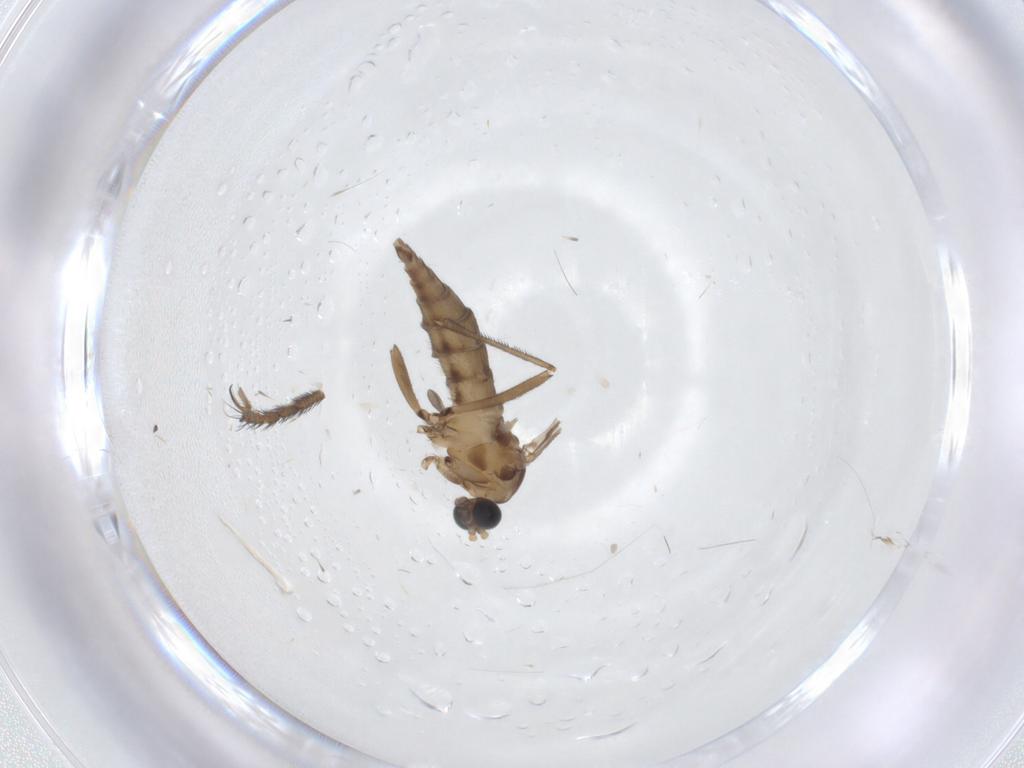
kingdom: Animalia
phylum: Arthropoda
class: Insecta
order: Diptera
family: Sciaridae
